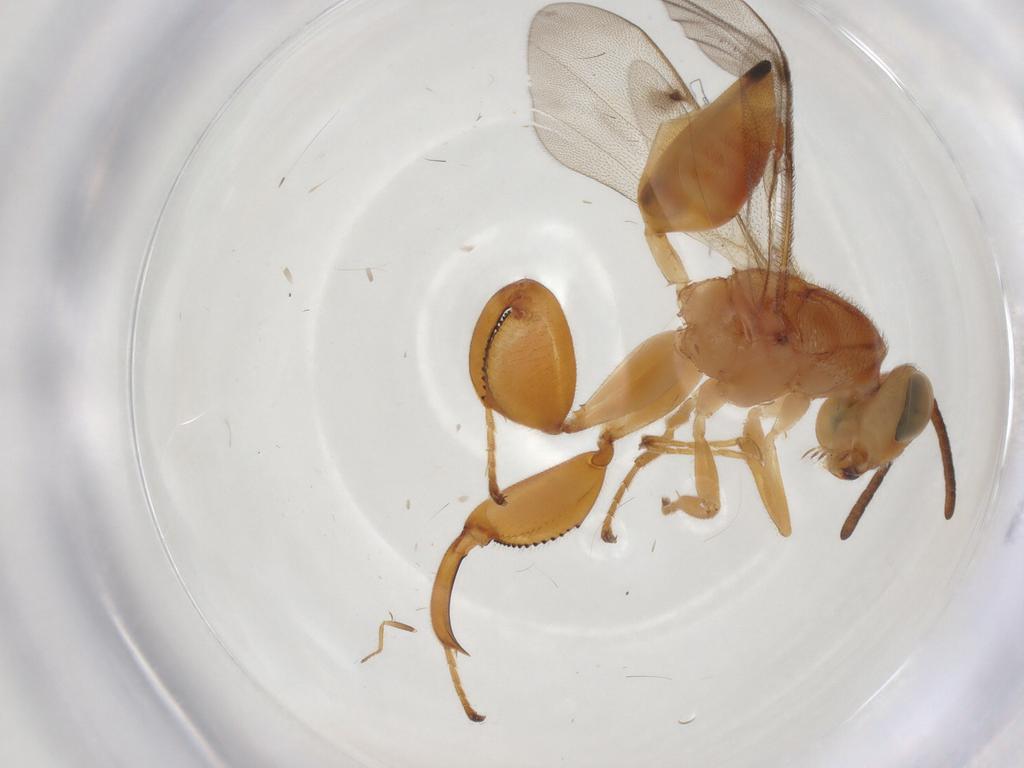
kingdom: Animalia
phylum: Arthropoda
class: Insecta
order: Hymenoptera
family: Chalcididae
